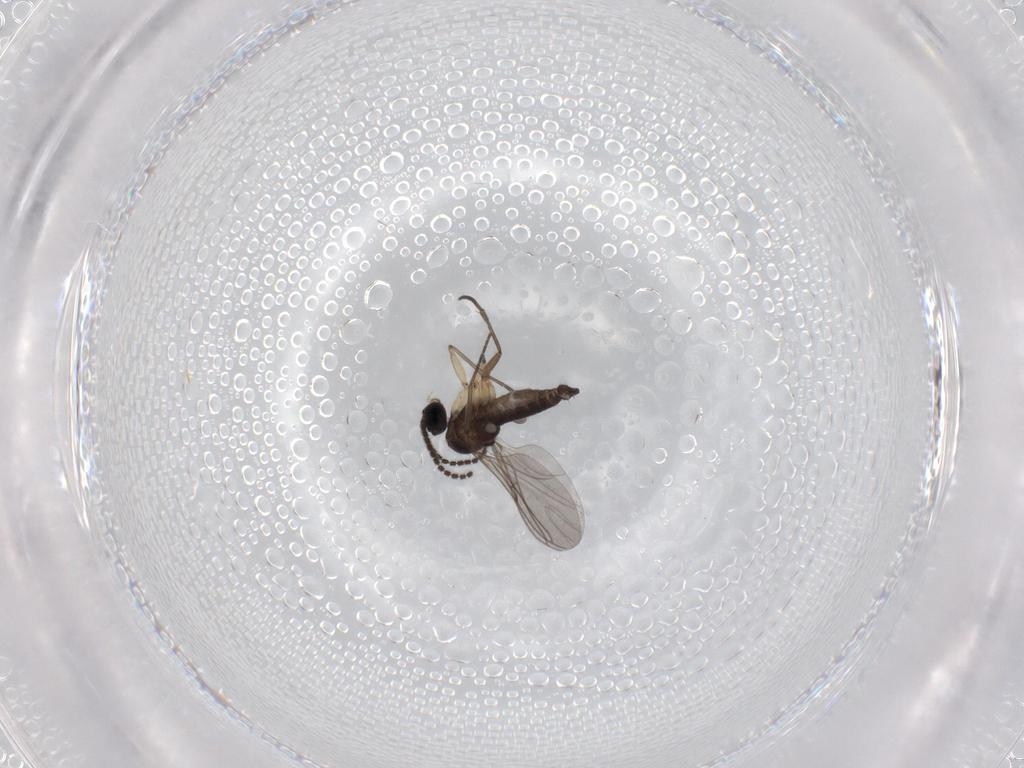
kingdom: Animalia
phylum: Arthropoda
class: Insecta
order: Diptera
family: Sciaridae
